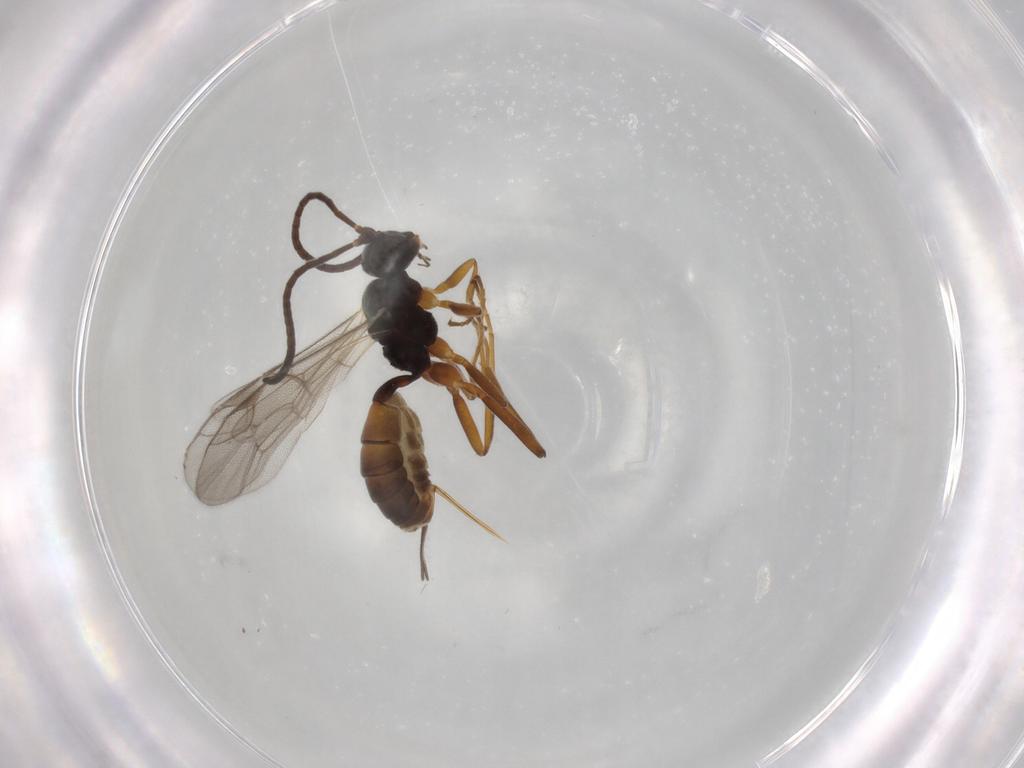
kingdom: Animalia
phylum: Arthropoda
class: Insecta
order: Hymenoptera
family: Ichneumonidae
